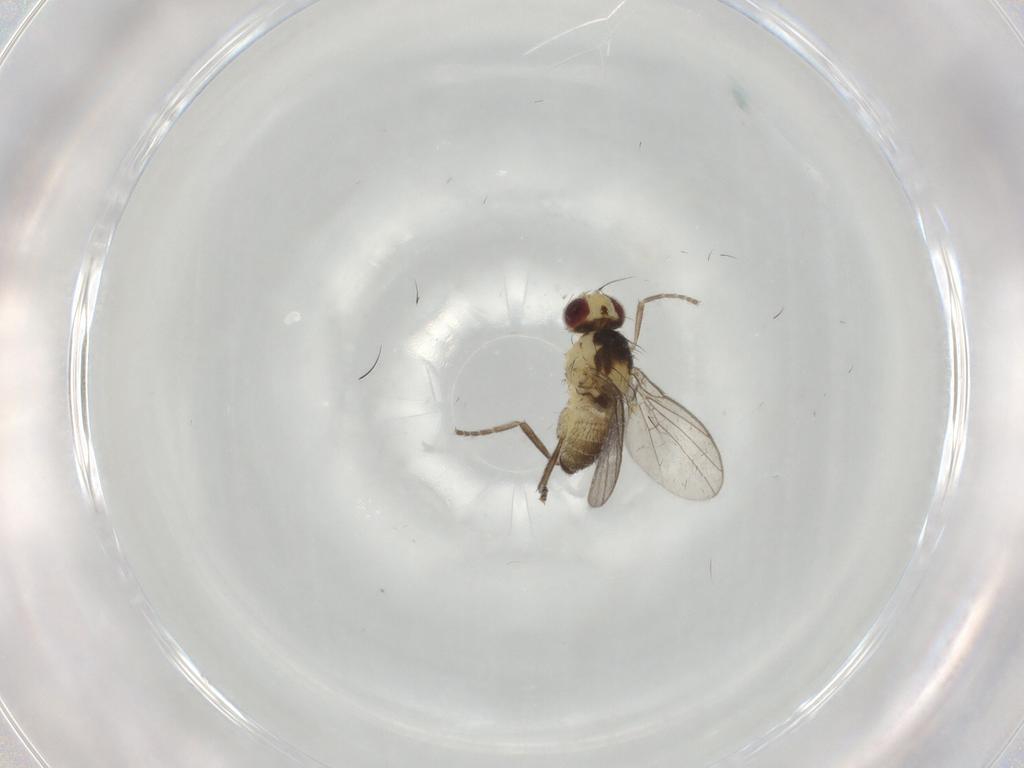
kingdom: Animalia
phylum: Arthropoda
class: Insecta
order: Diptera
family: Agromyzidae
